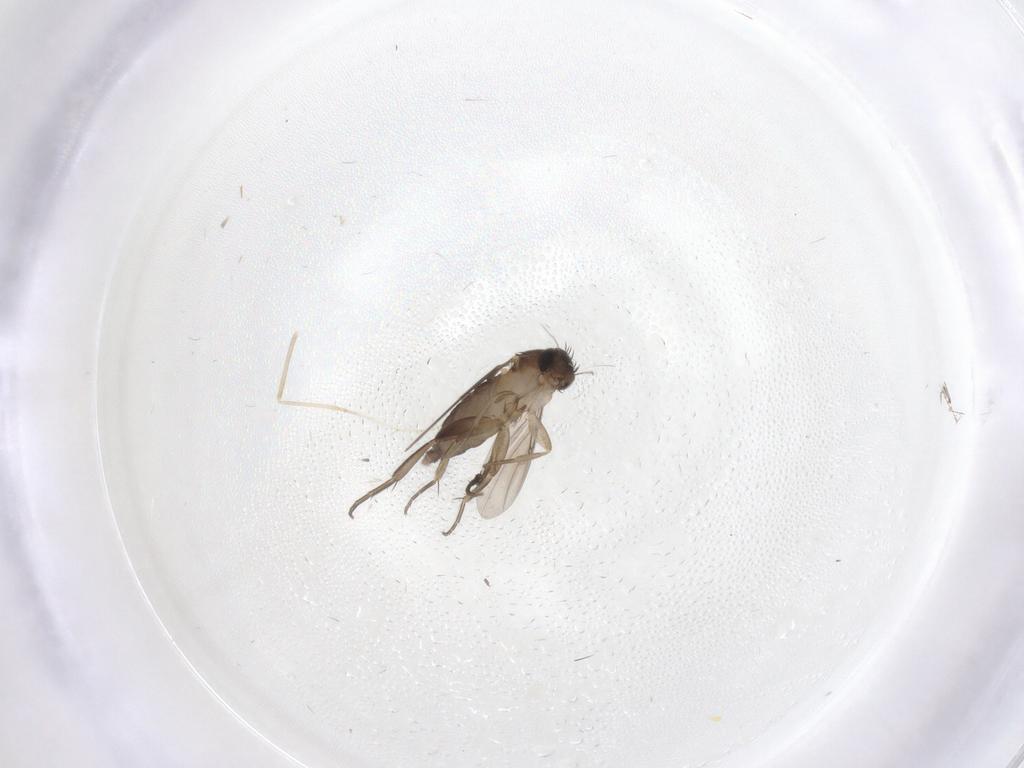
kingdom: Animalia
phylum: Arthropoda
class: Insecta
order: Diptera
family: Phoridae
